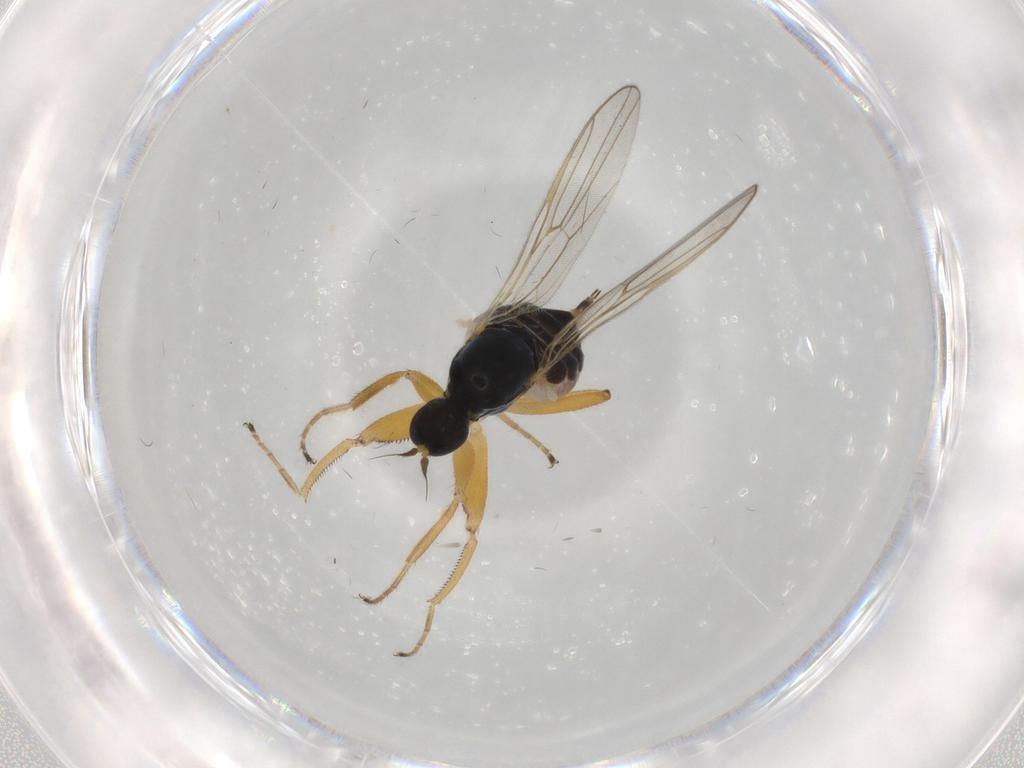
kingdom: Animalia
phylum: Arthropoda
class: Insecta
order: Diptera
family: Hybotidae
